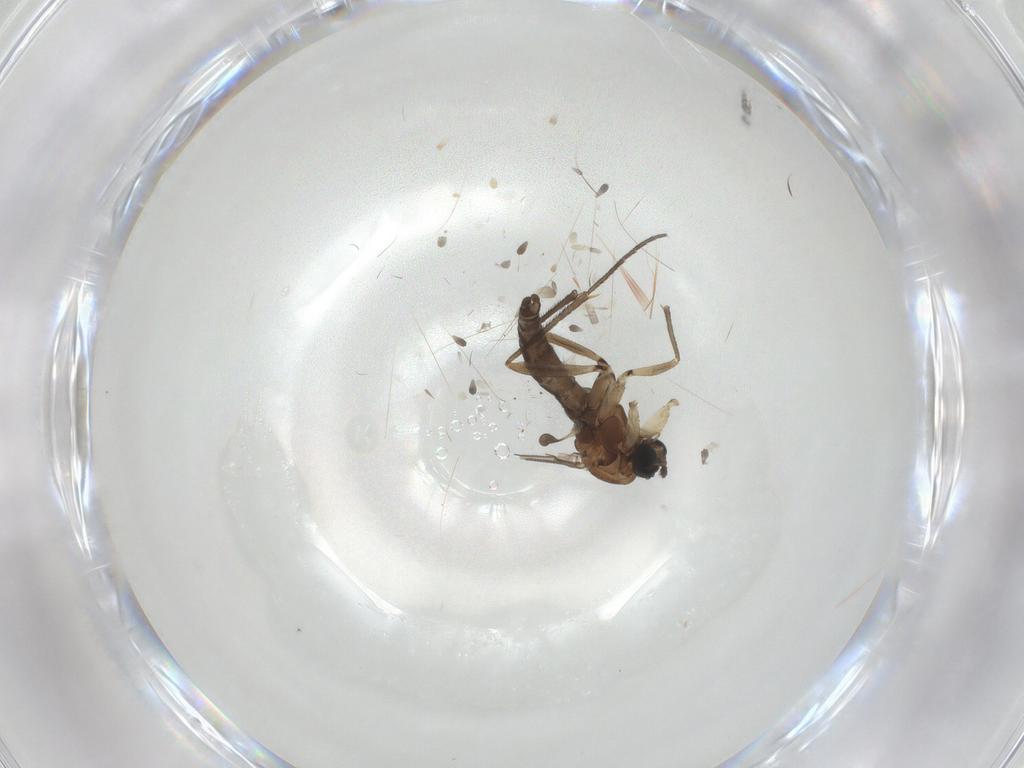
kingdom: Animalia
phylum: Arthropoda
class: Insecta
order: Diptera
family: Sciaridae
